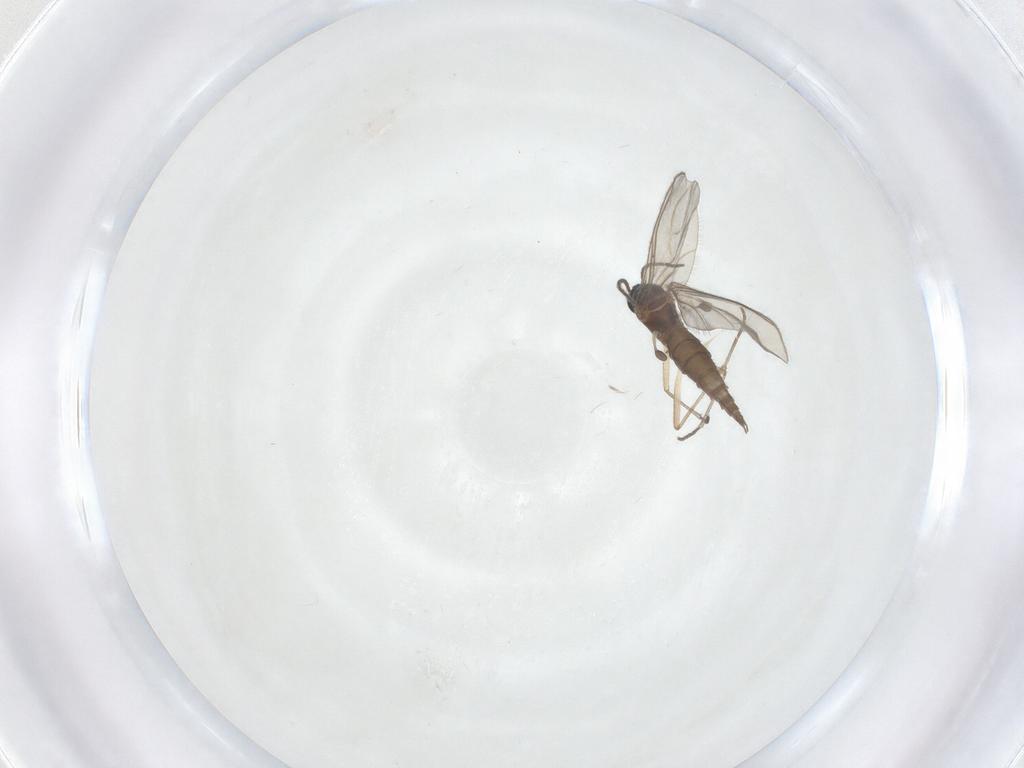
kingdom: Animalia
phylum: Arthropoda
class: Insecta
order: Diptera
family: Sciaridae
